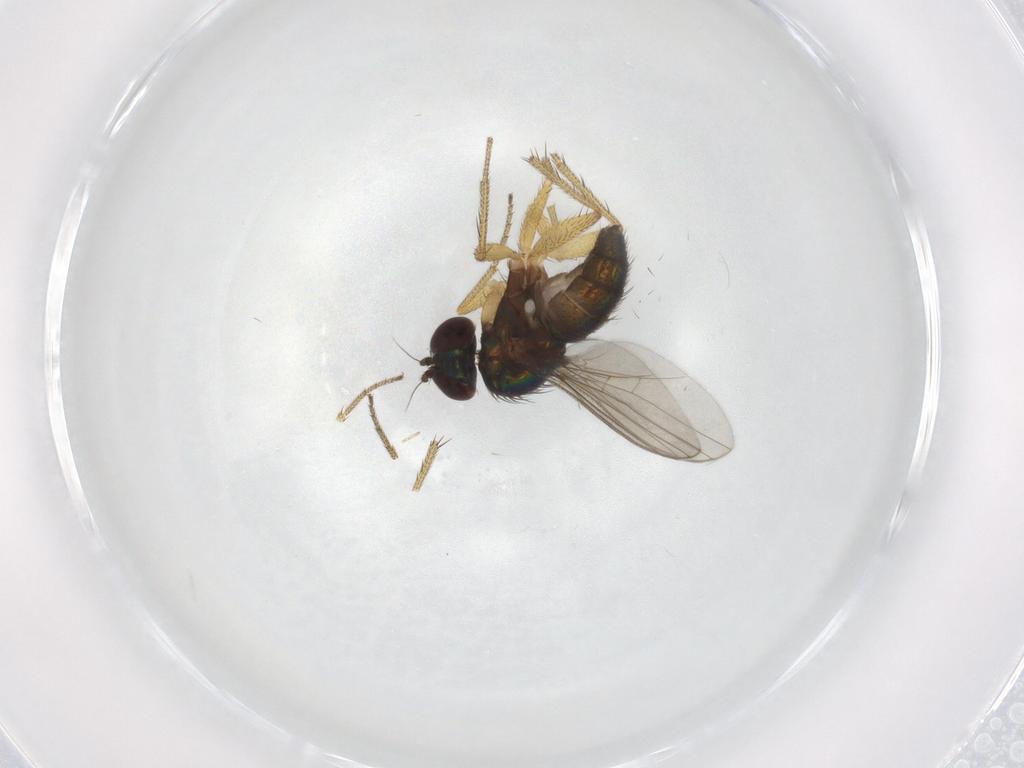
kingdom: Animalia
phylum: Arthropoda
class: Insecta
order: Diptera
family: Dolichopodidae
